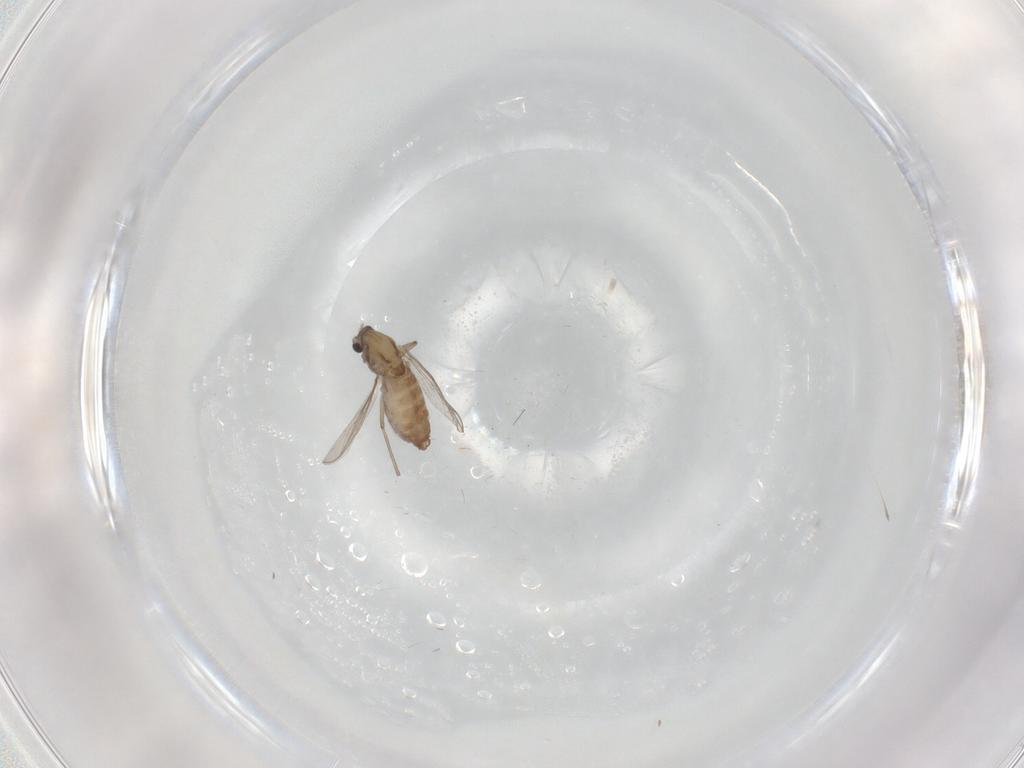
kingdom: Animalia
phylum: Arthropoda
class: Insecta
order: Diptera
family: Chironomidae
